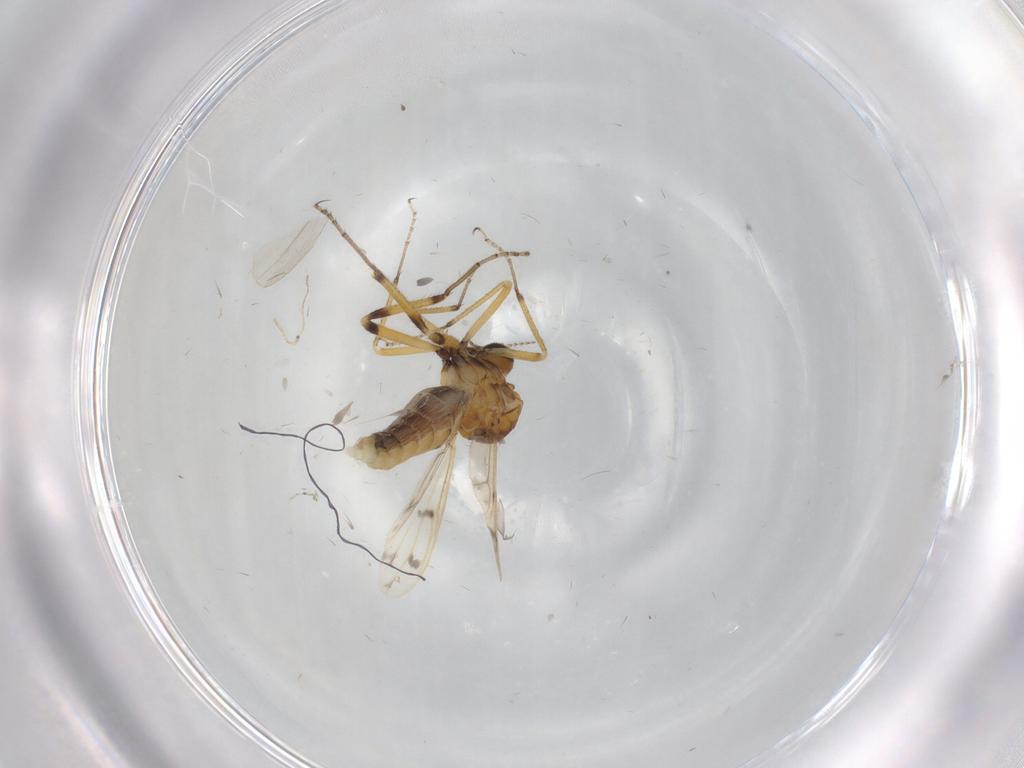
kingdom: Animalia
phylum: Arthropoda
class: Insecta
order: Diptera
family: Ceratopogonidae
